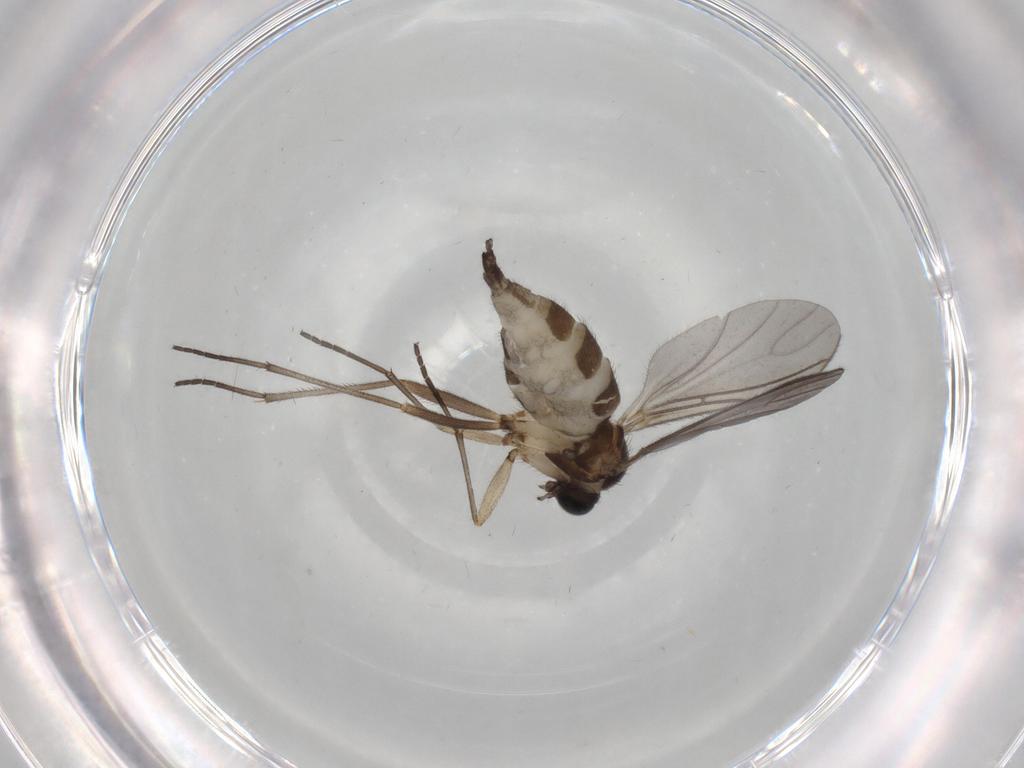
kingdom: Animalia
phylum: Arthropoda
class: Insecta
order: Diptera
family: Sciaridae
